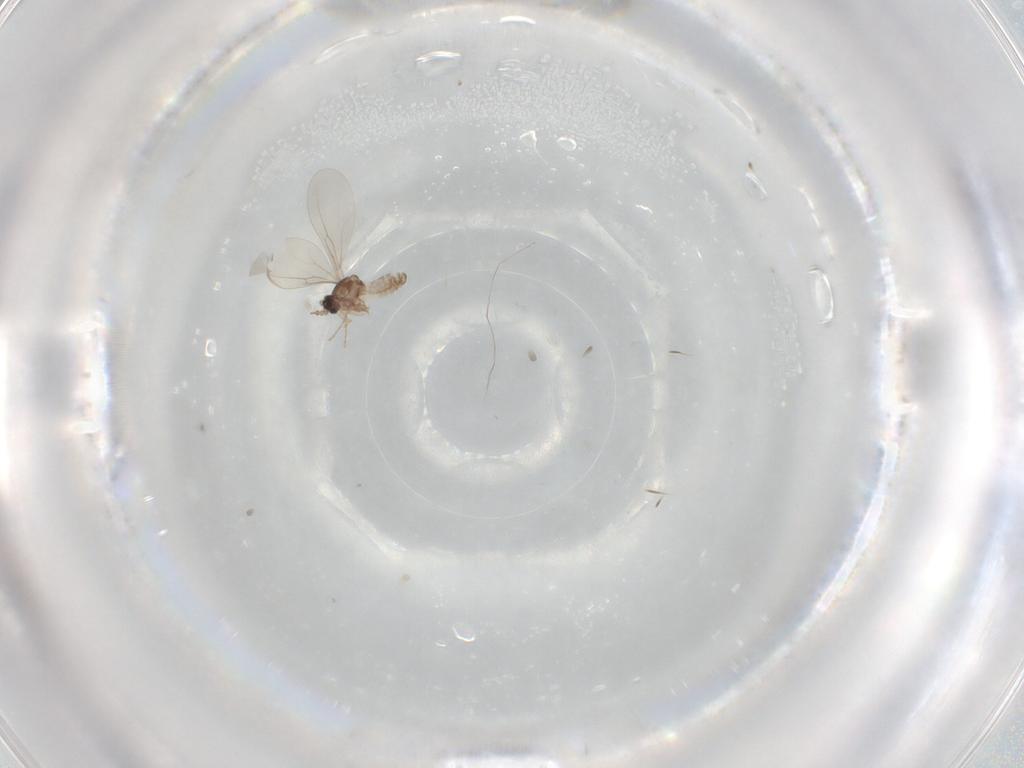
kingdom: Animalia
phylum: Arthropoda
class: Insecta
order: Diptera
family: Cecidomyiidae
